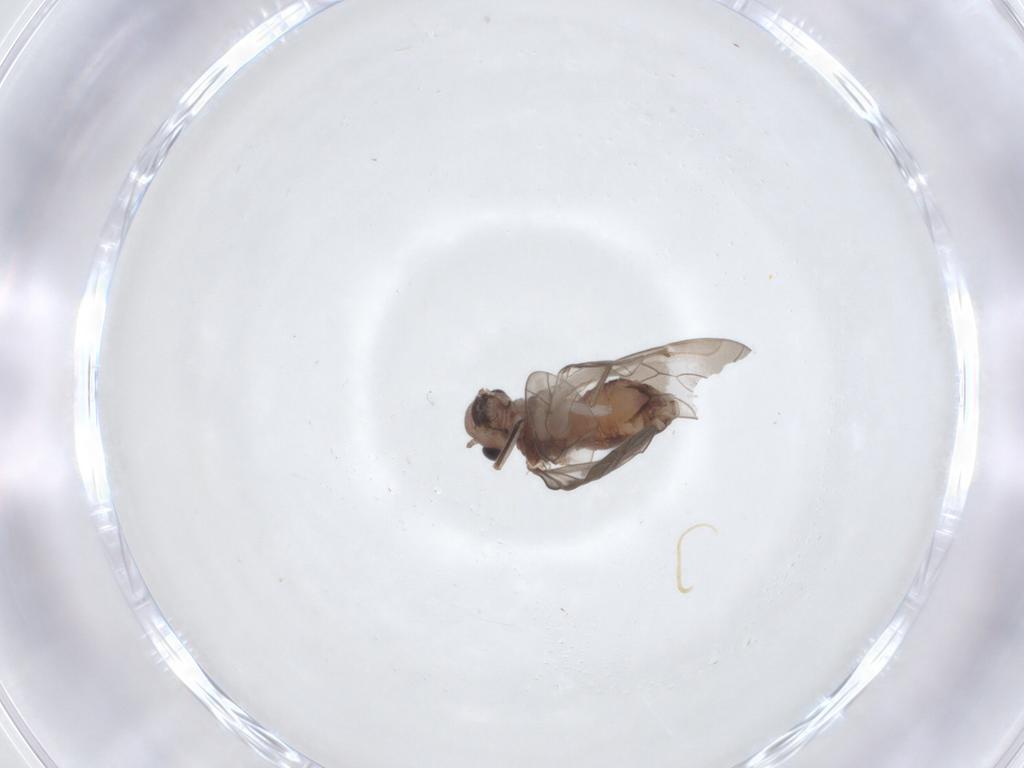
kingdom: Animalia
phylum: Arthropoda
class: Insecta
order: Psocodea
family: Peripsocidae
